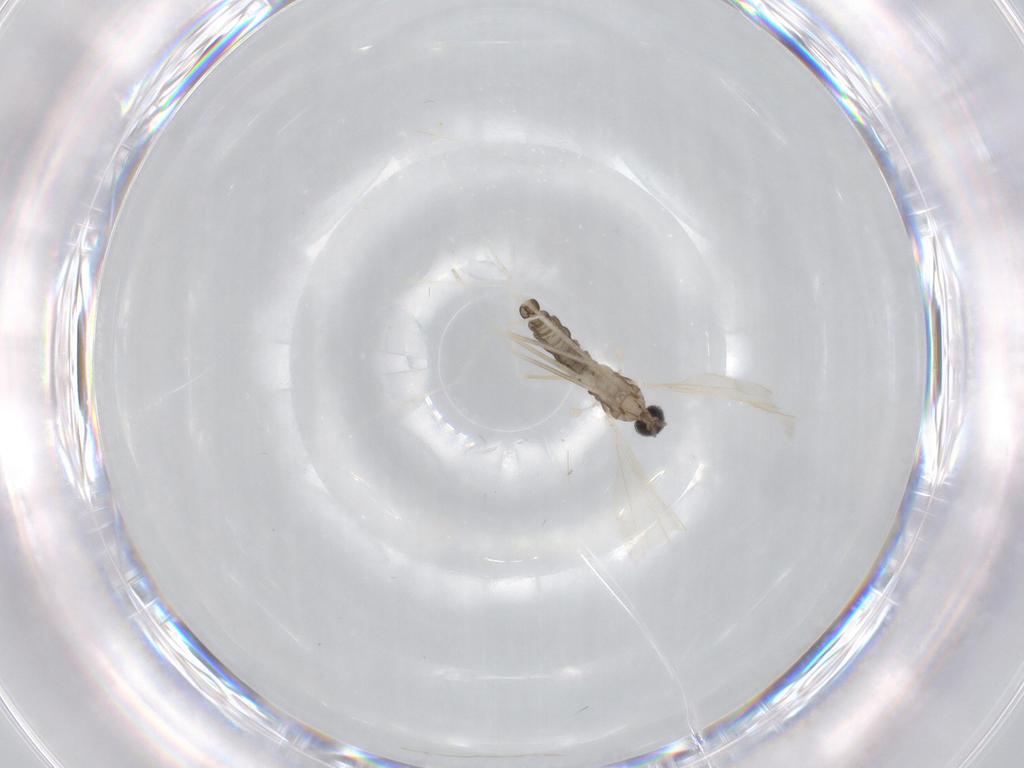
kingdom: Animalia
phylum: Arthropoda
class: Insecta
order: Diptera
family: Cecidomyiidae
